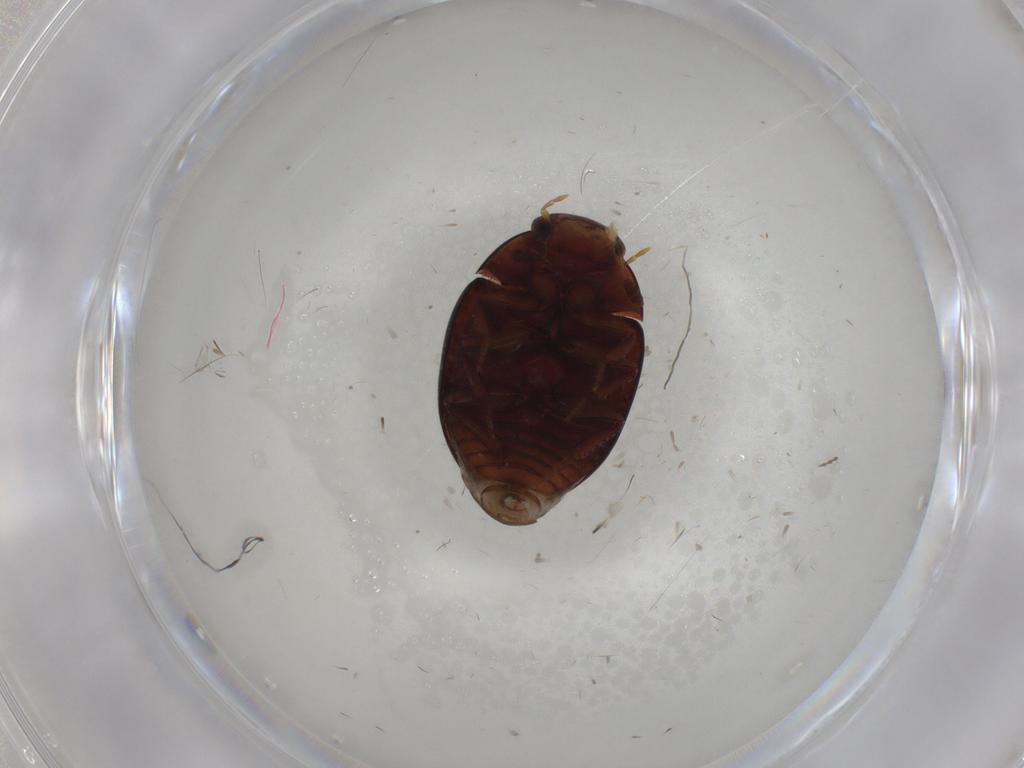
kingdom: Animalia
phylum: Arthropoda
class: Insecta
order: Coleoptera
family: Hydrophilidae
